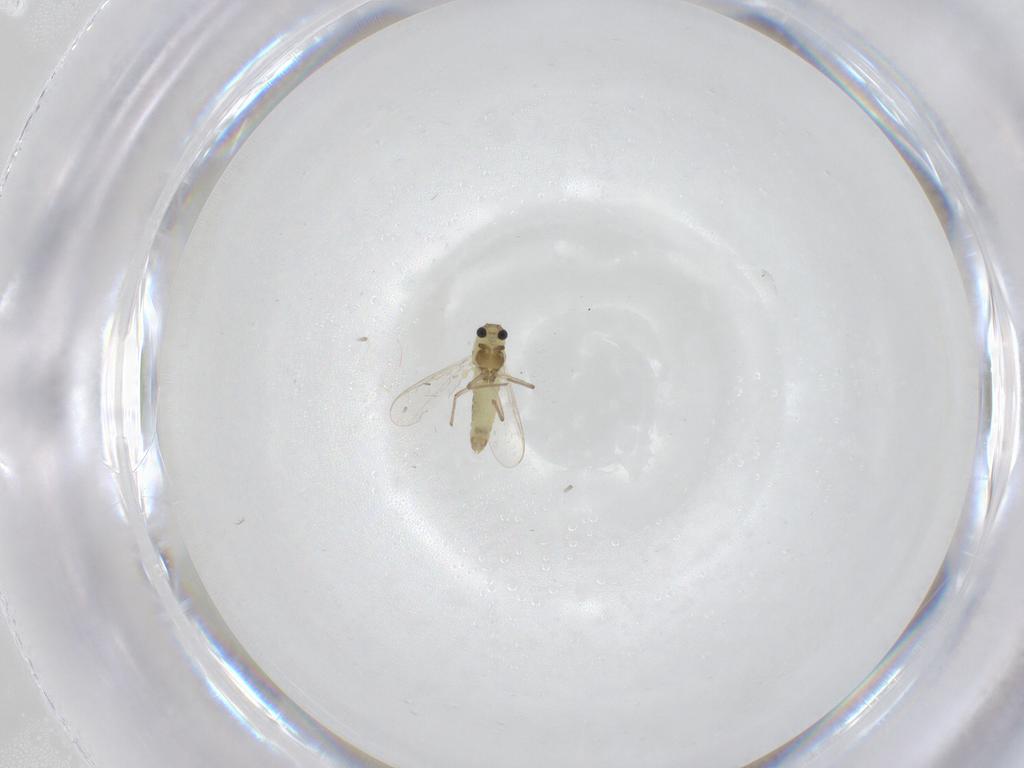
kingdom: Animalia
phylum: Arthropoda
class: Insecta
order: Diptera
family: Chironomidae
